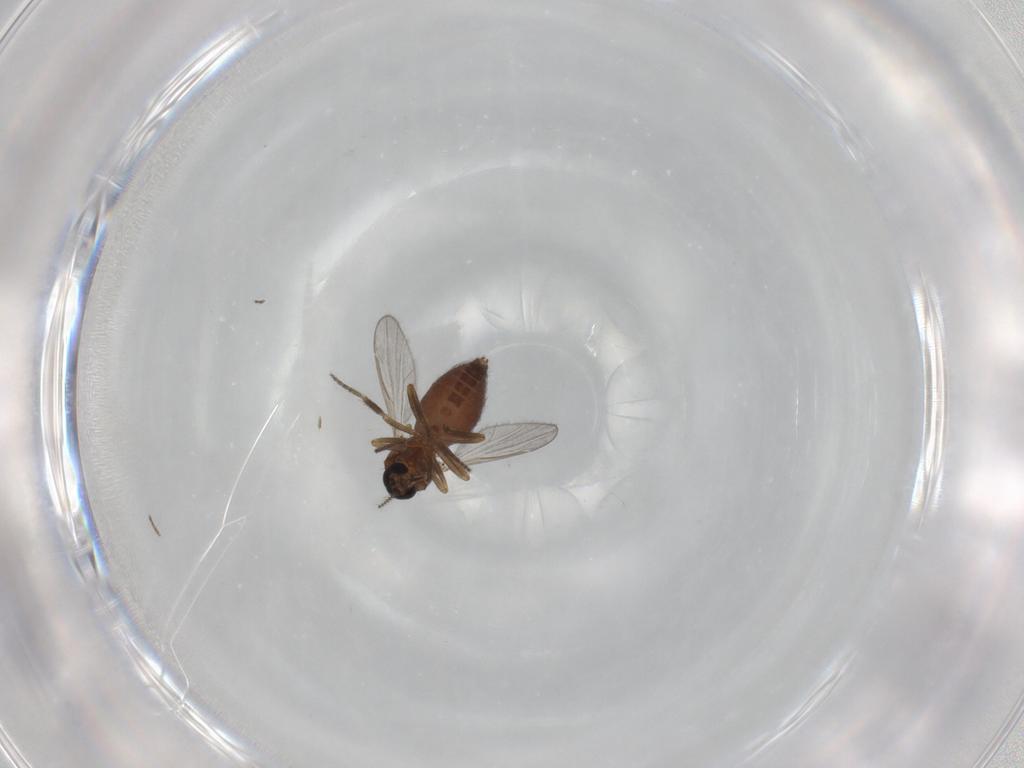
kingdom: Animalia
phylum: Arthropoda
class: Insecta
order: Diptera
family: Ceratopogonidae
